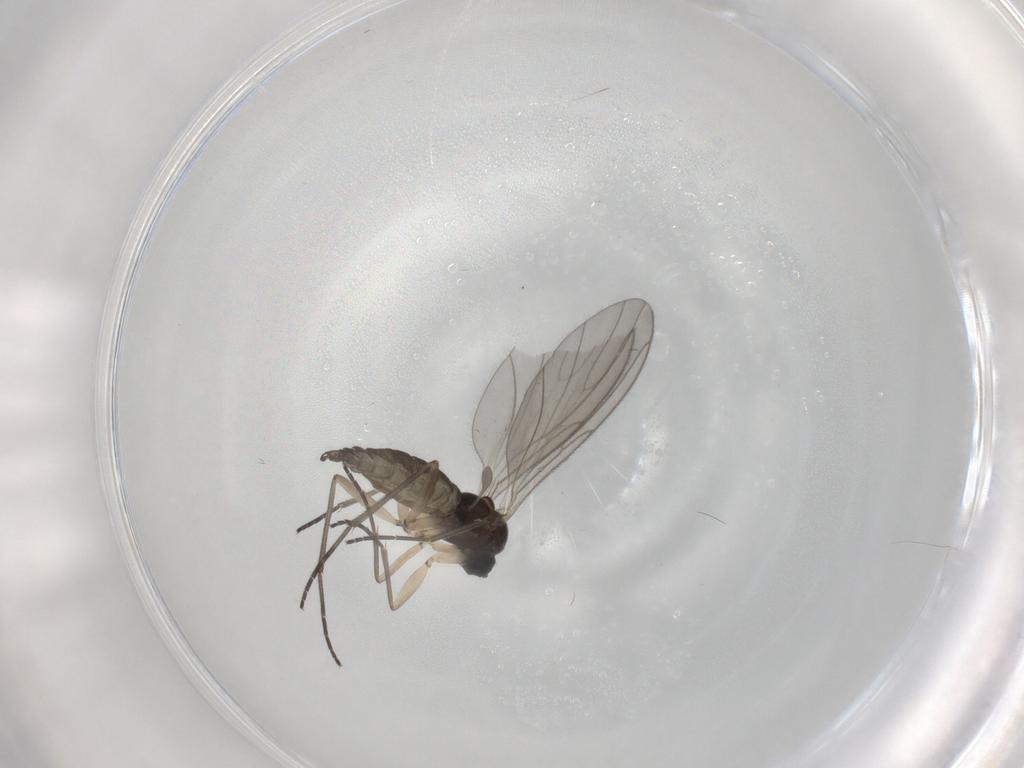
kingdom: Animalia
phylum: Arthropoda
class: Insecta
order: Diptera
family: Sciaridae
